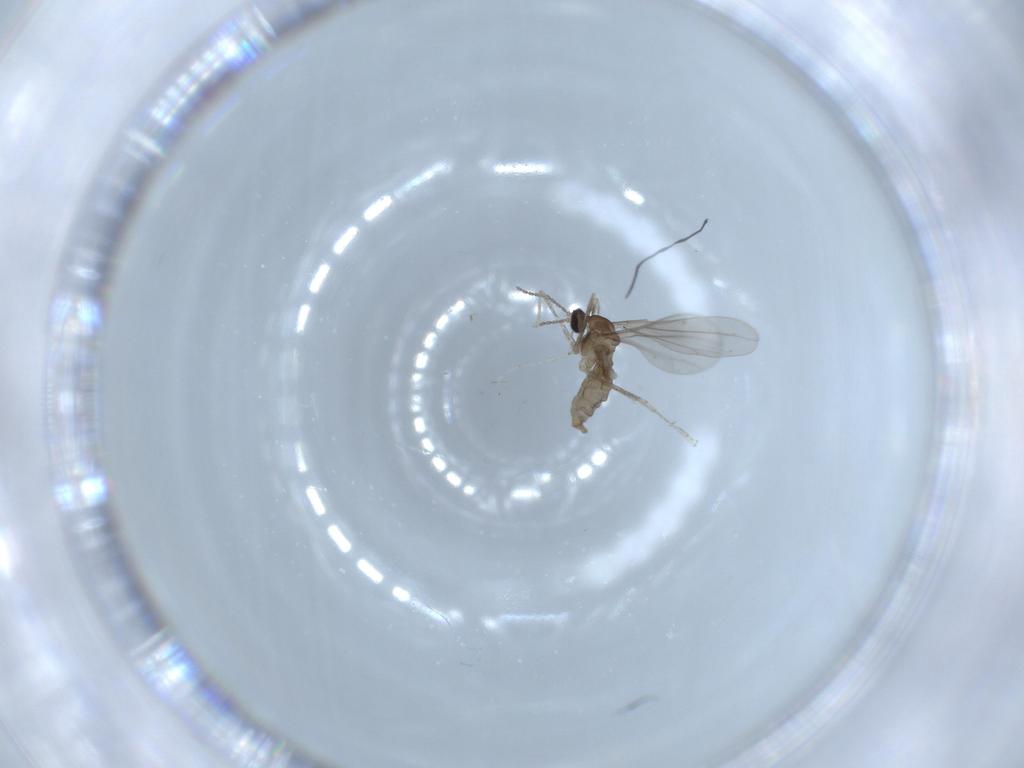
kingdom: Animalia
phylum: Arthropoda
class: Insecta
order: Diptera
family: Cecidomyiidae
